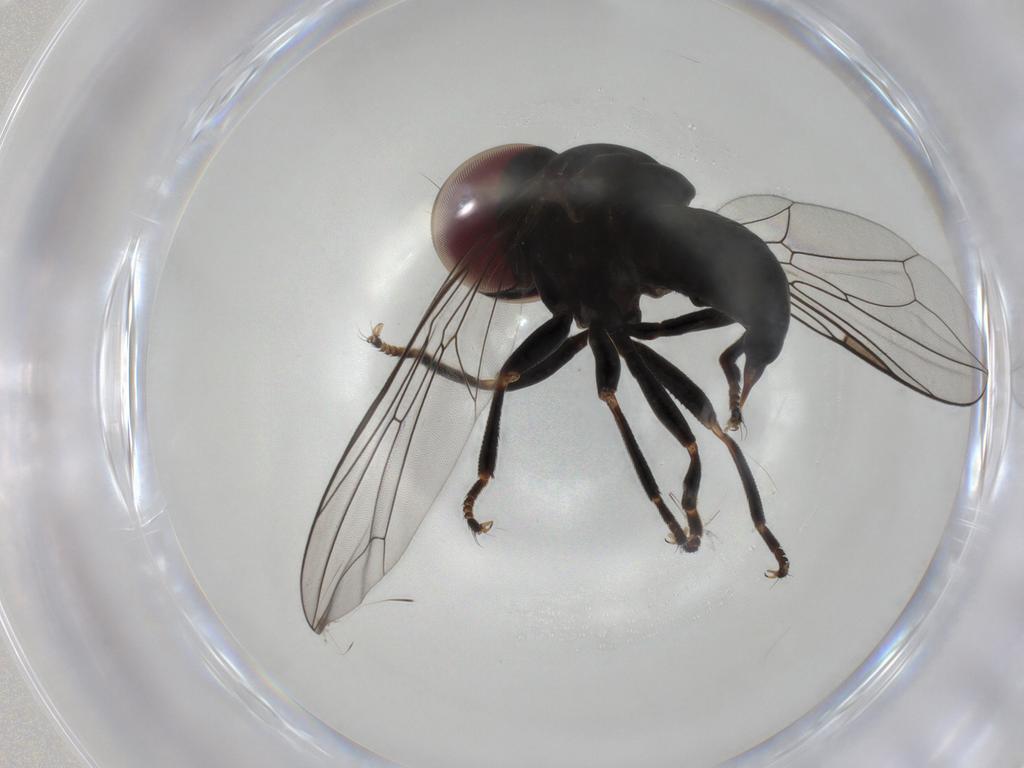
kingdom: Animalia
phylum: Arthropoda
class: Insecta
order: Diptera
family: Pipunculidae
